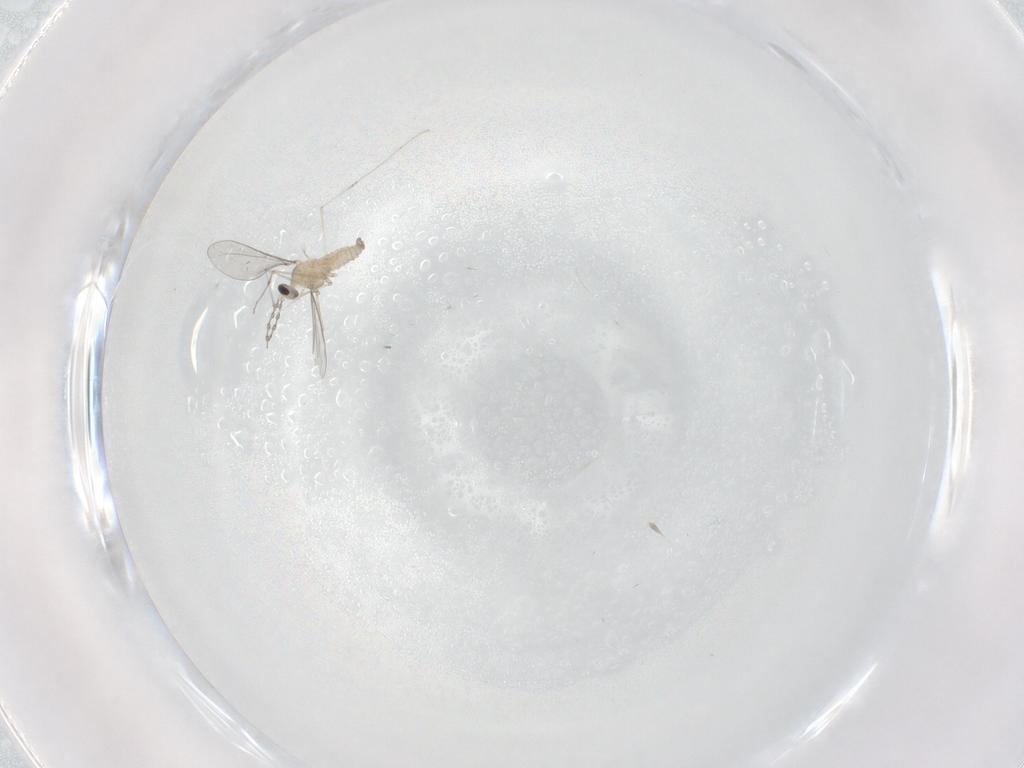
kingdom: Animalia
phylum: Arthropoda
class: Insecta
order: Diptera
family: Cecidomyiidae
